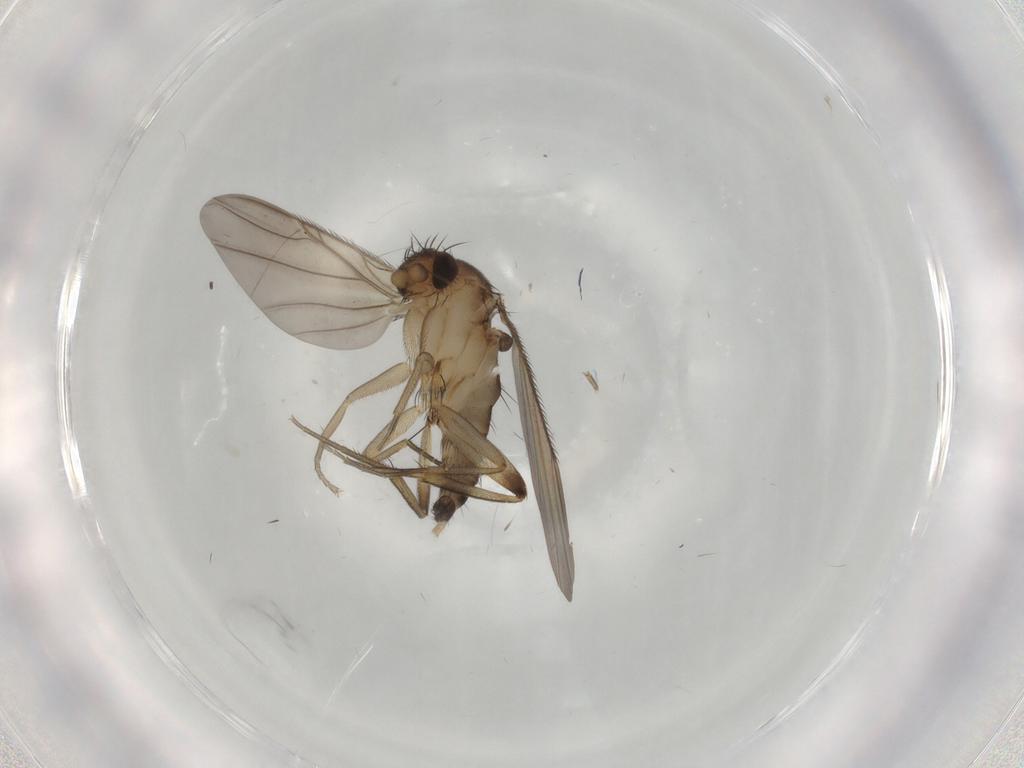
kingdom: Animalia
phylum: Arthropoda
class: Insecta
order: Diptera
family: Phoridae
